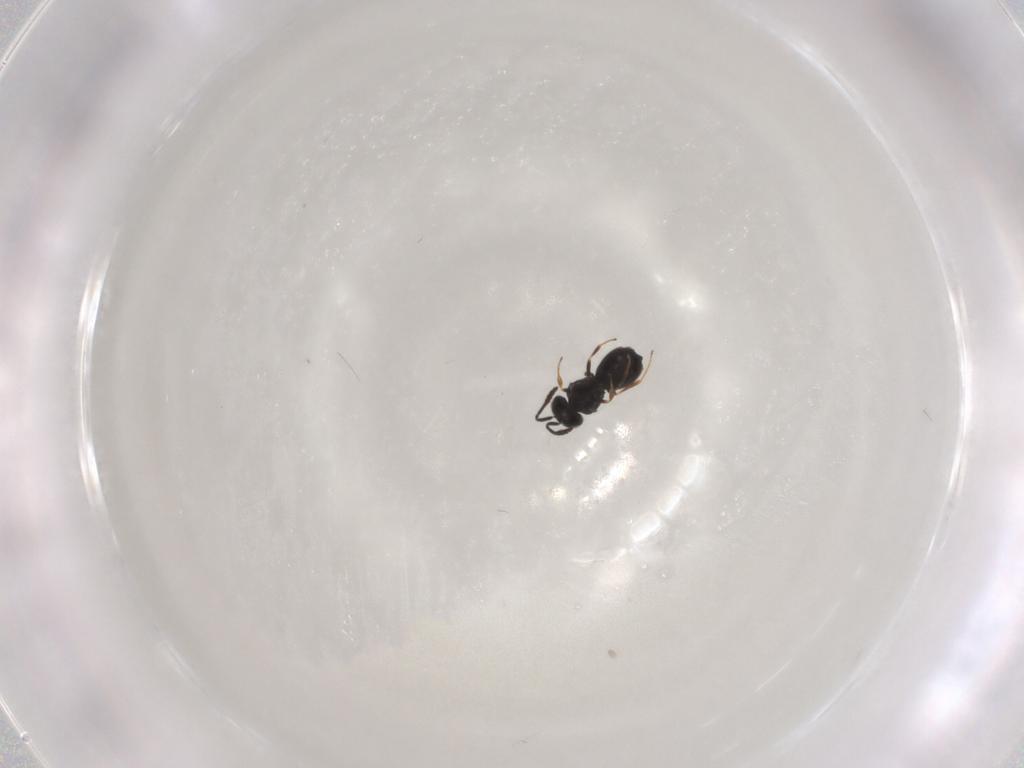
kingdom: Animalia
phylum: Arthropoda
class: Insecta
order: Hymenoptera
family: Scelionidae
